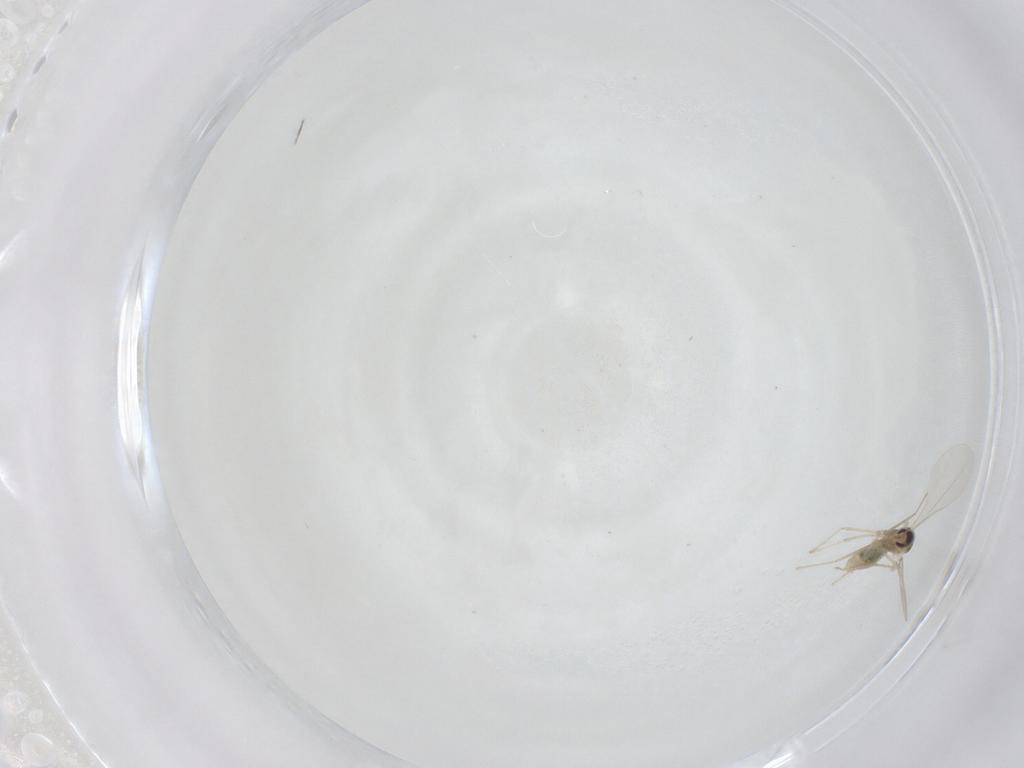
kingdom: Animalia
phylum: Arthropoda
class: Insecta
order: Diptera
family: Cecidomyiidae
